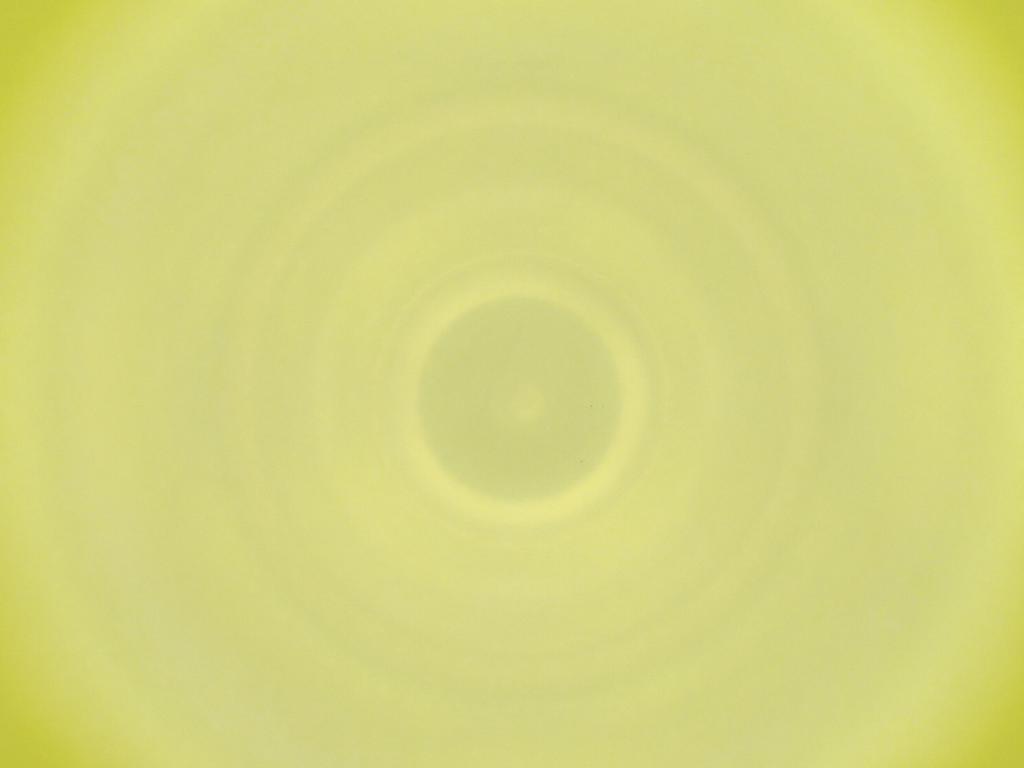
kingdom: Animalia
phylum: Arthropoda
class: Insecta
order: Diptera
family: Cecidomyiidae
